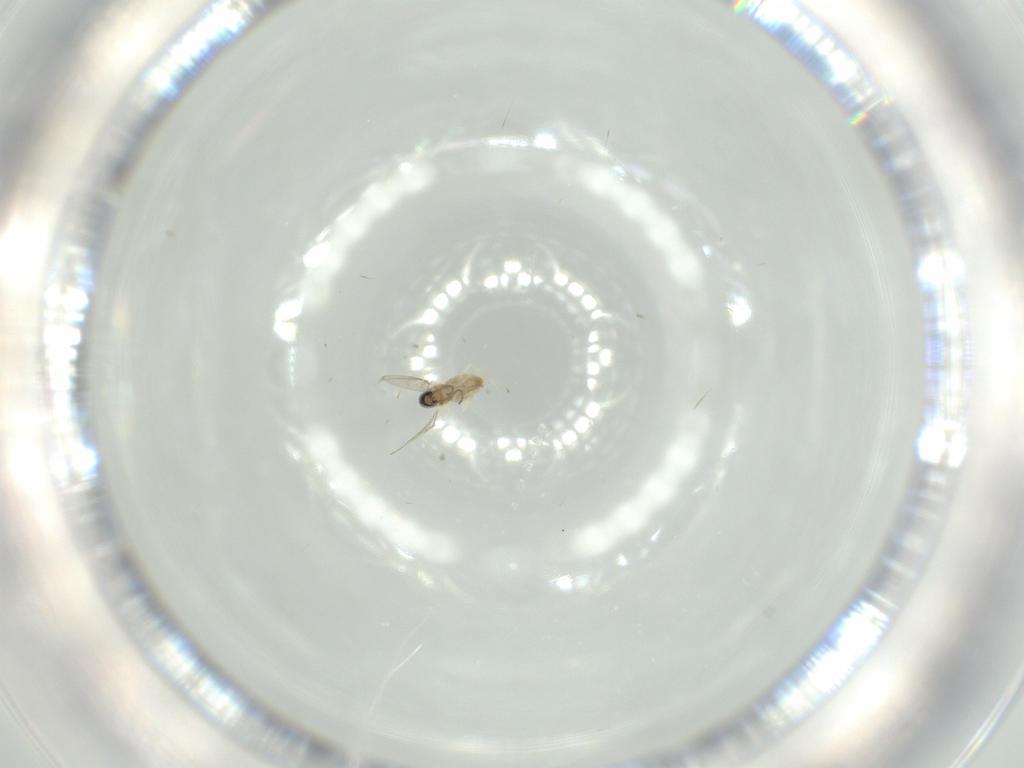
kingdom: Animalia
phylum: Arthropoda
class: Insecta
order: Diptera
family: Cecidomyiidae
